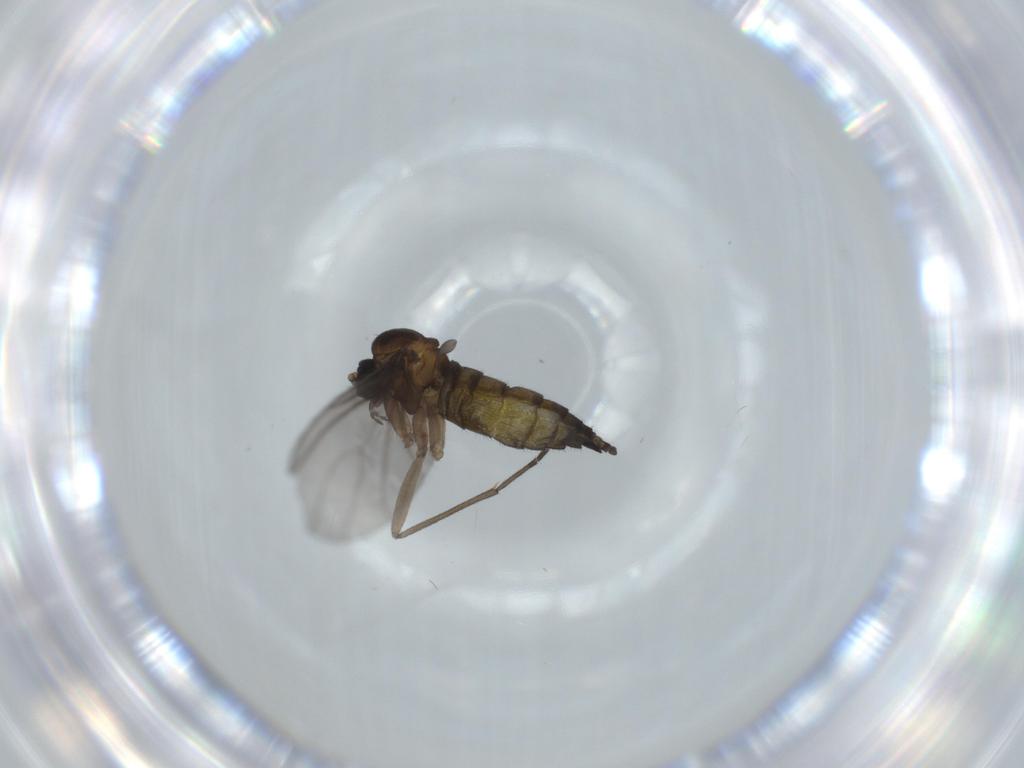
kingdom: Animalia
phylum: Arthropoda
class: Insecta
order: Diptera
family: Sciaridae
